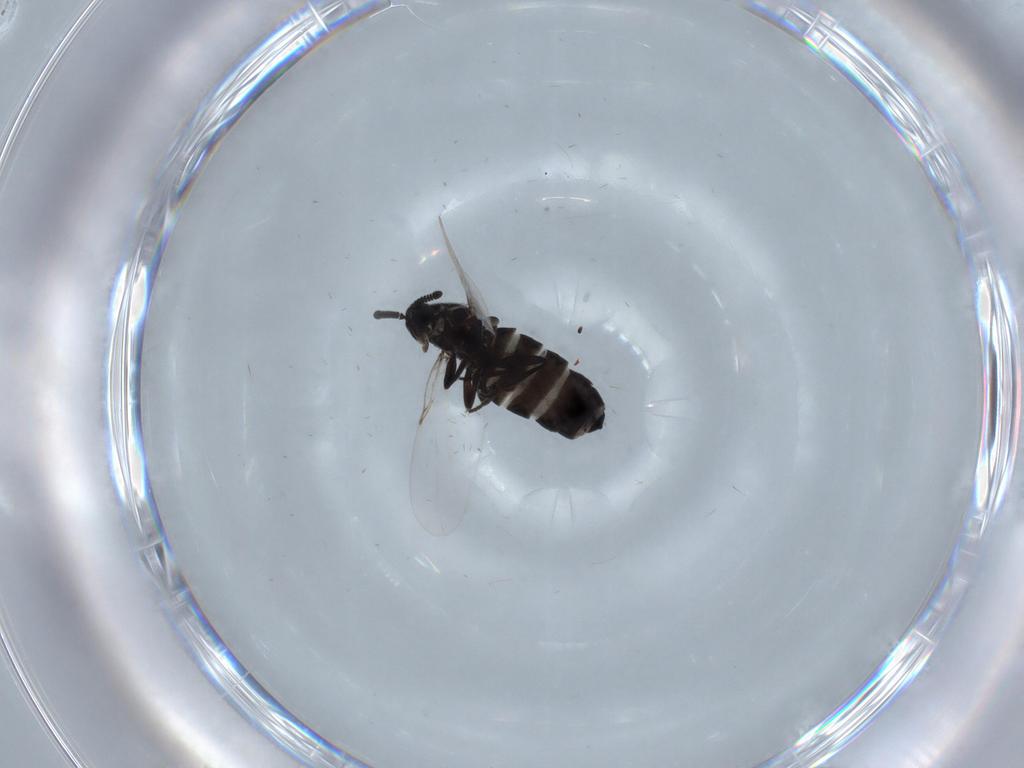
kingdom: Animalia
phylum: Arthropoda
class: Insecta
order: Diptera
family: Scatopsidae
